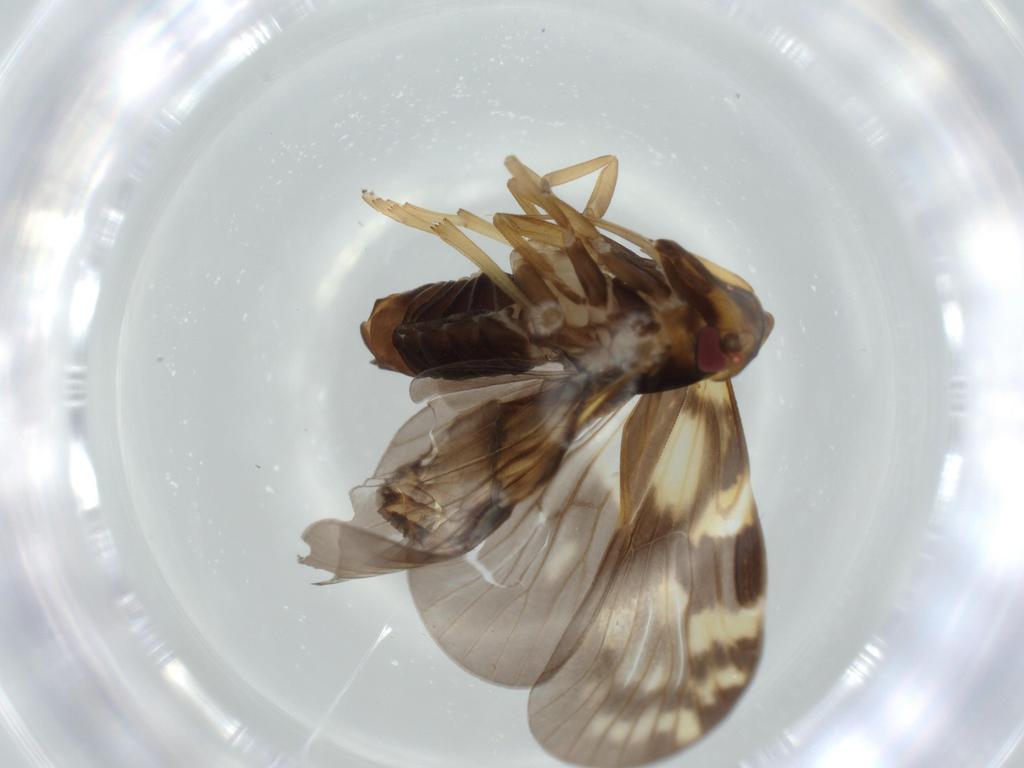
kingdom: Animalia
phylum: Arthropoda
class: Insecta
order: Hemiptera
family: Cixiidae
